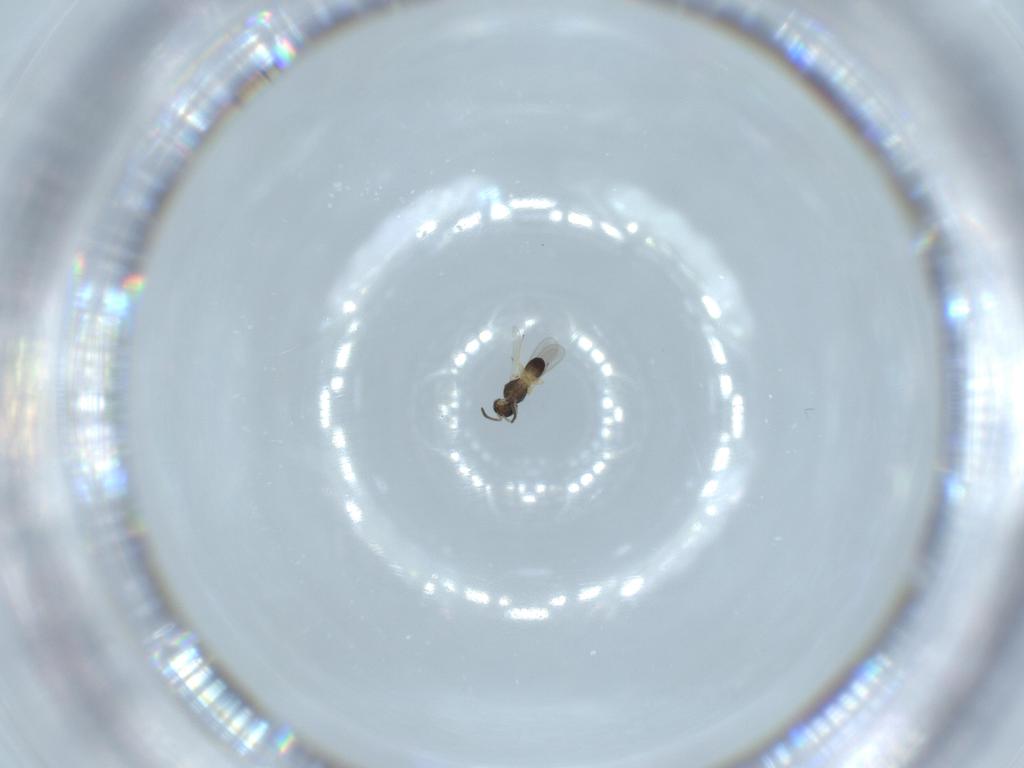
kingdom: Animalia
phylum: Arthropoda
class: Insecta
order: Hymenoptera
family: Scelionidae
